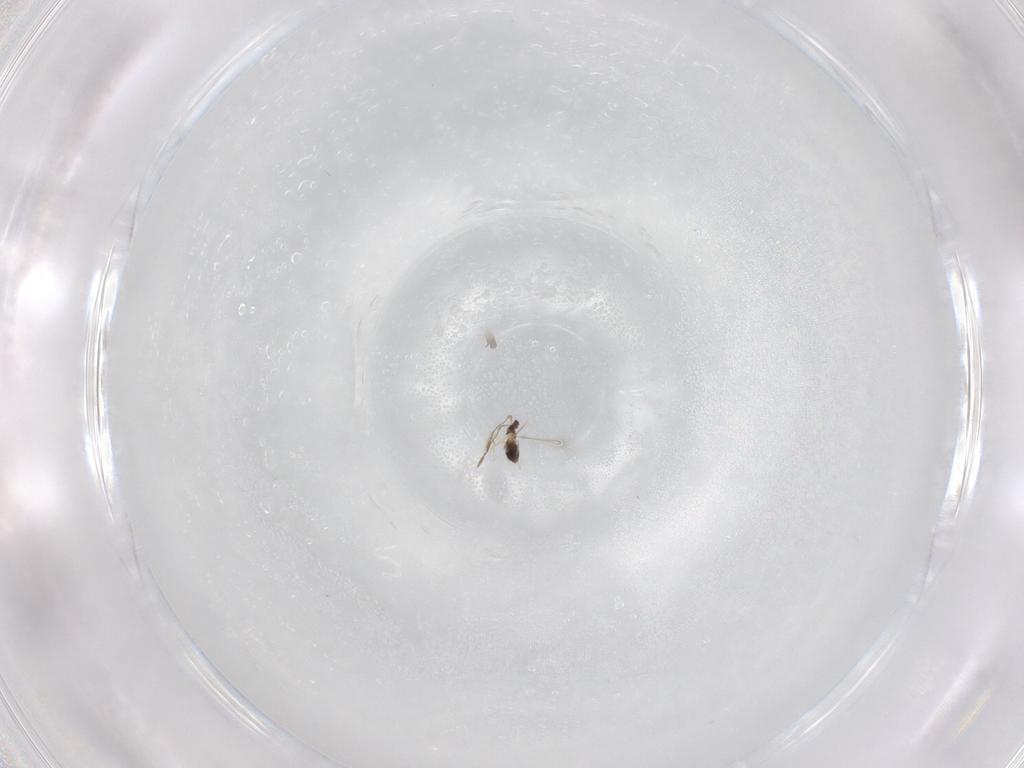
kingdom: Animalia
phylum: Arthropoda
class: Insecta
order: Hymenoptera
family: Mymaridae
